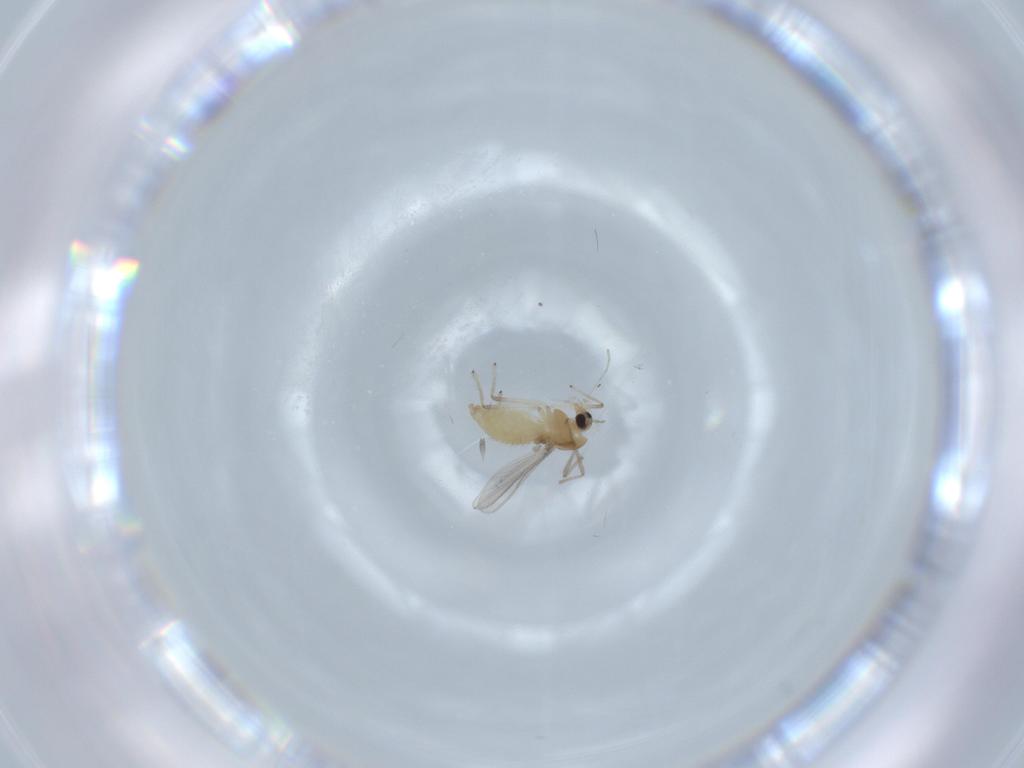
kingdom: Animalia
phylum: Arthropoda
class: Insecta
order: Diptera
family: Chironomidae
